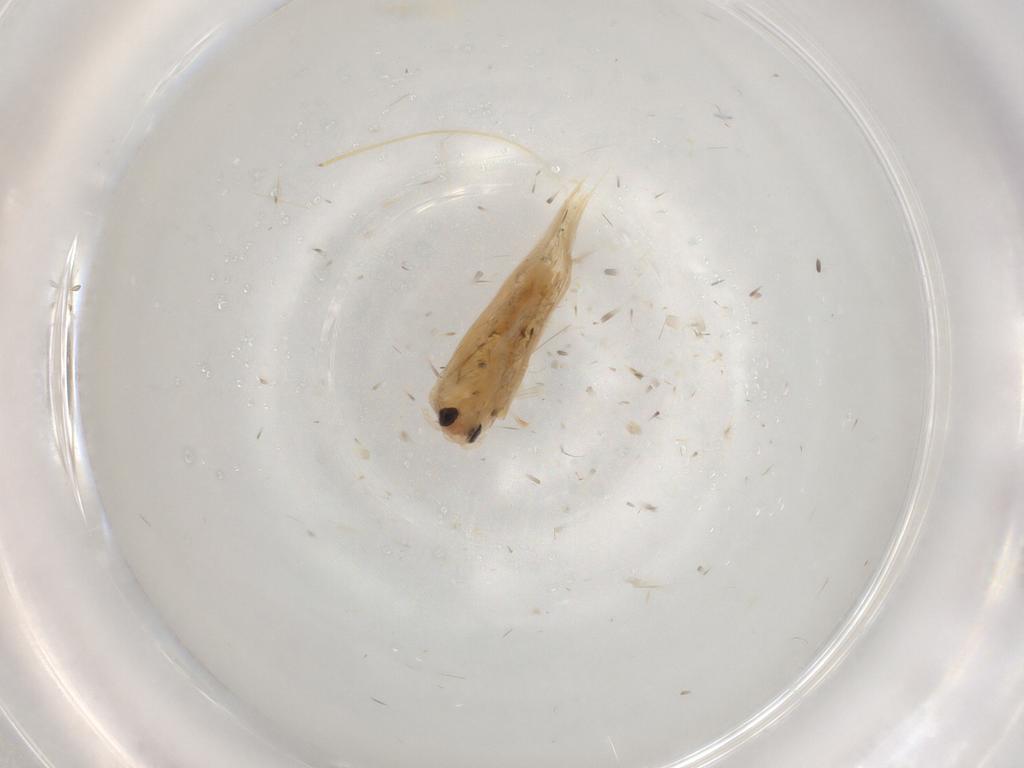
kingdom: Animalia
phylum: Arthropoda
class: Insecta
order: Lepidoptera
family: Bucculatricidae
